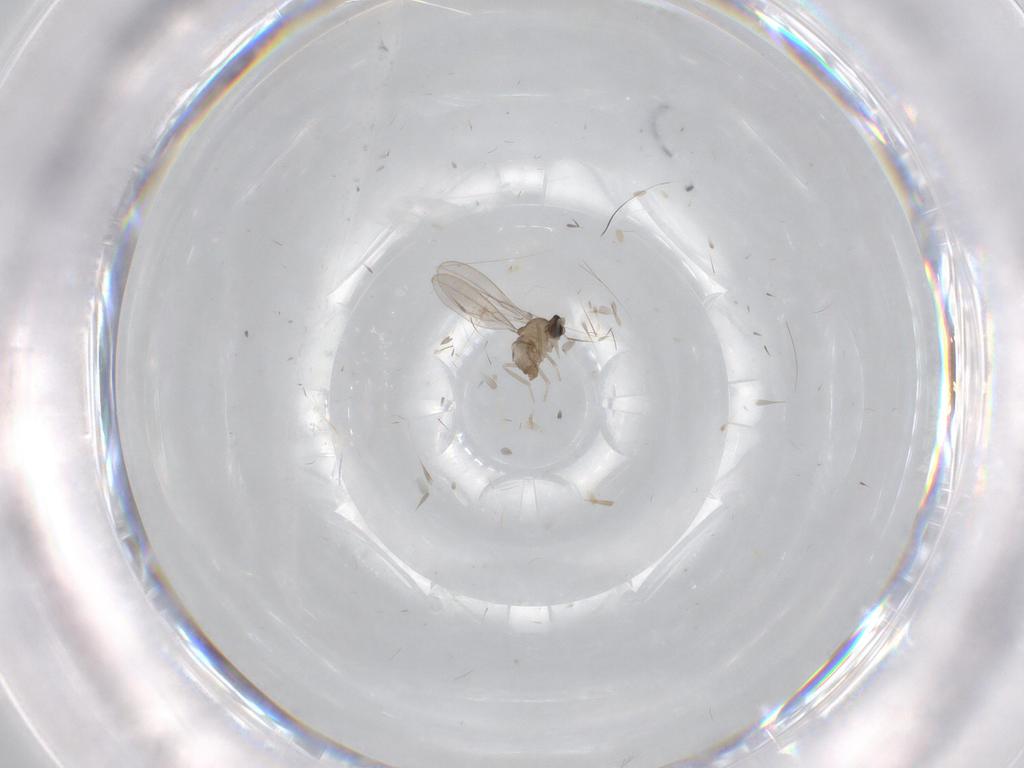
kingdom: Animalia
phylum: Arthropoda
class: Insecta
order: Diptera
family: Cecidomyiidae
